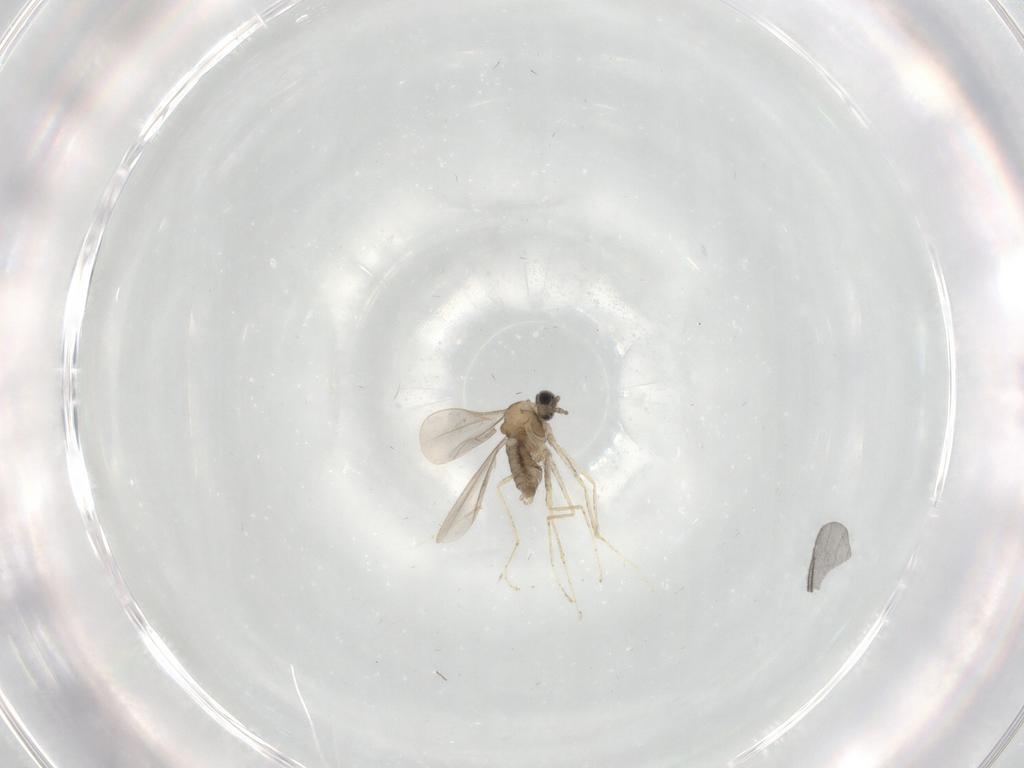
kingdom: Animalia
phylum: Arthropoda
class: Insecta
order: Diptera
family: Cecidomyiidae
